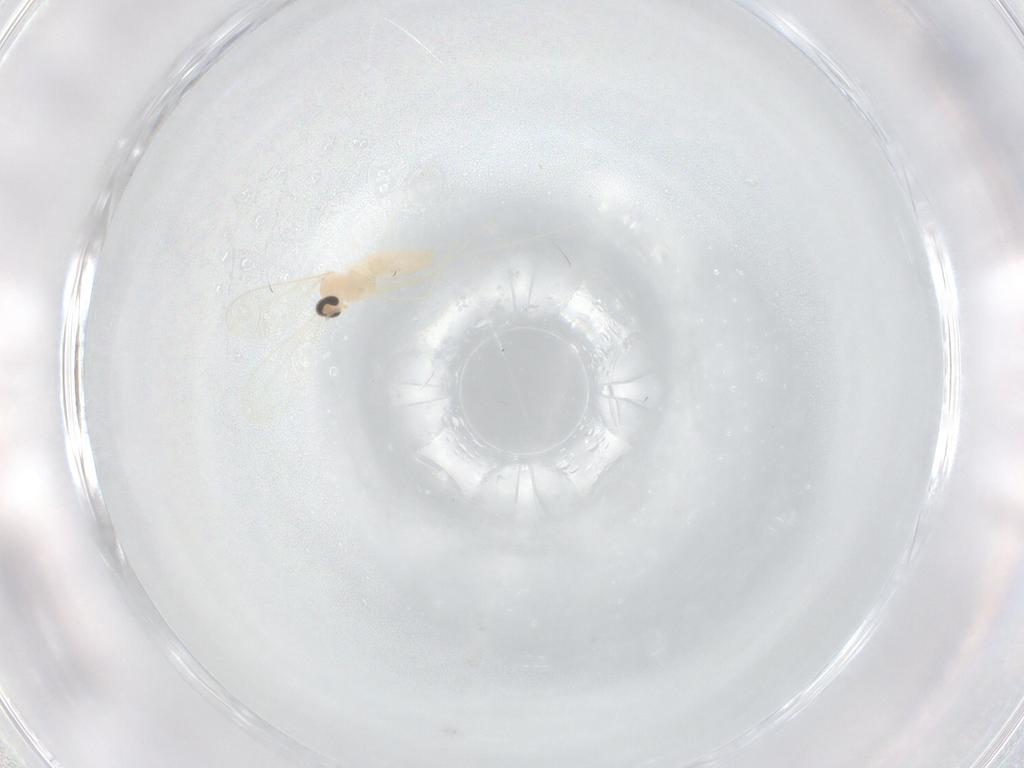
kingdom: Animalia
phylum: Arthropoda
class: Insecta
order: Diptera
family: Cecidomyiidae
